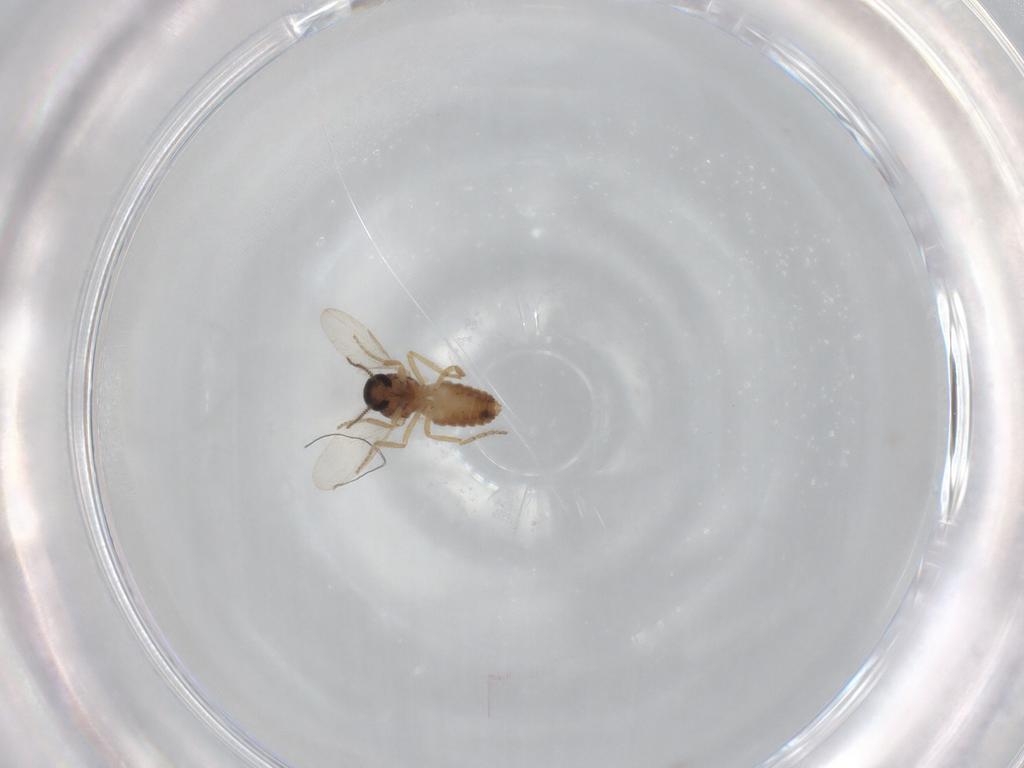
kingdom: Animalia
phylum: Arthropoda
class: Insecta
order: Diptera
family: Ceratopogonidae
